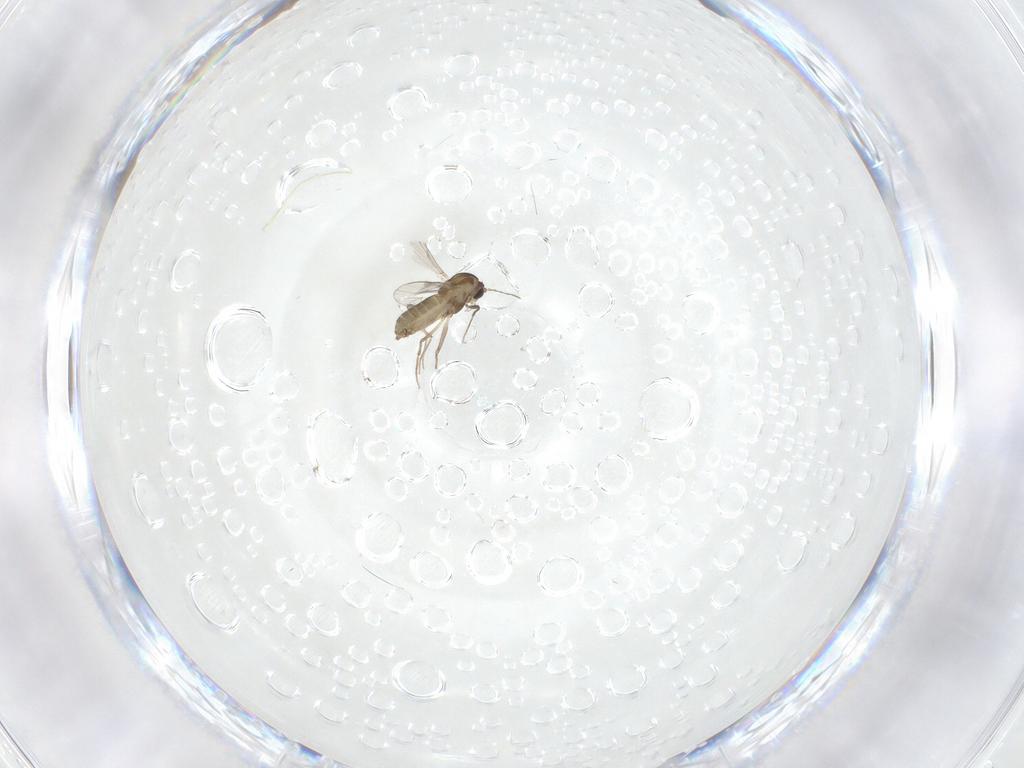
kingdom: Animalia
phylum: Arthropoda
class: Insecta
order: Diptera
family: Chironomidae
